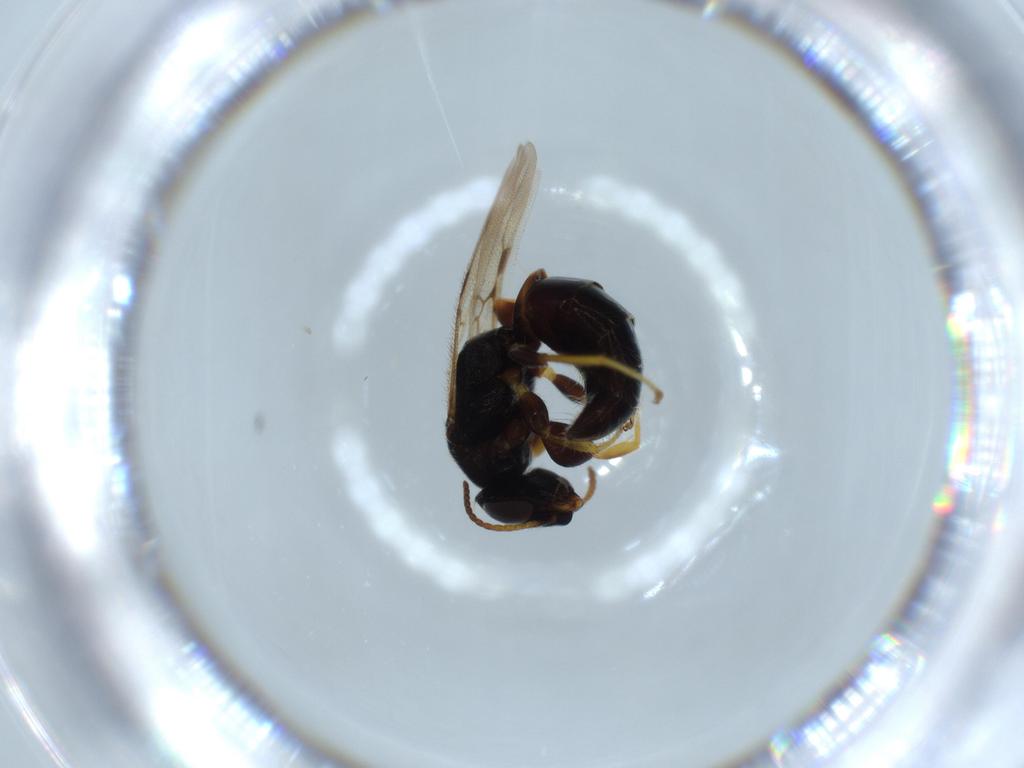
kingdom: Animalia
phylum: Arthropoda
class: Insecta
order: Hymenoptera
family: Bethylidae
